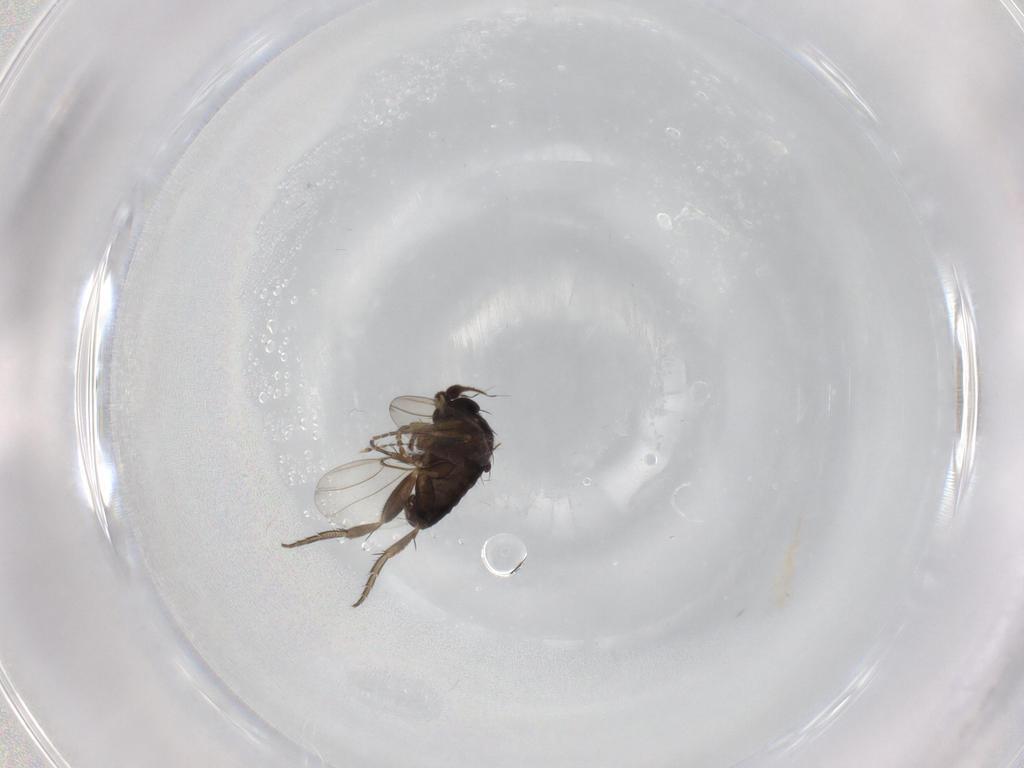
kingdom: Animalia
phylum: Arthropoda
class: Insecta
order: Diptera
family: Phoridae
